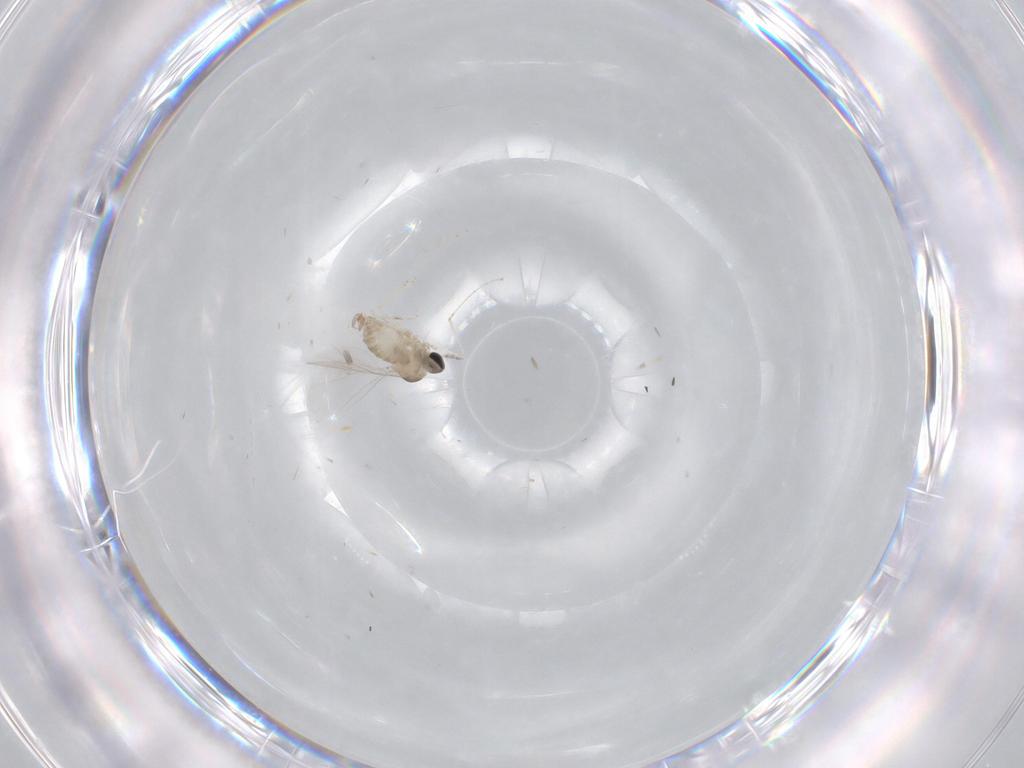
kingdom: Animalia
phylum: Arthropoda
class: Insecta
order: Diptera
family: Cecidomyiidae
